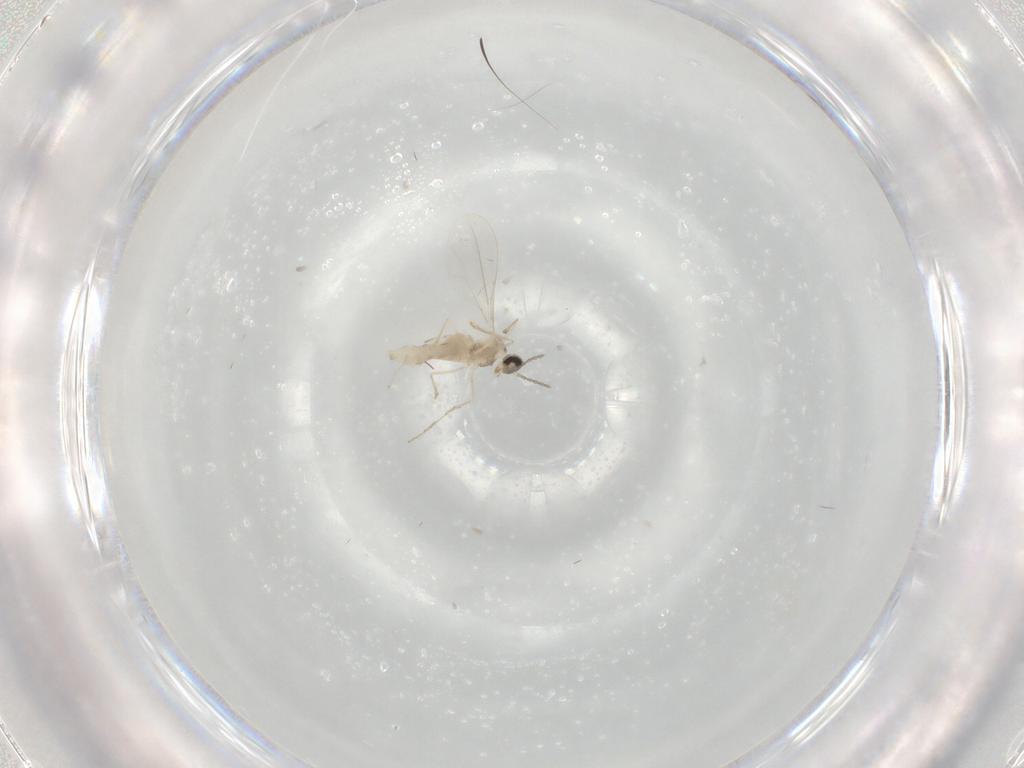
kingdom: Animalia
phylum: Arthropoda
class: Insecta
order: Diptera
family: Cecidomyiidae
